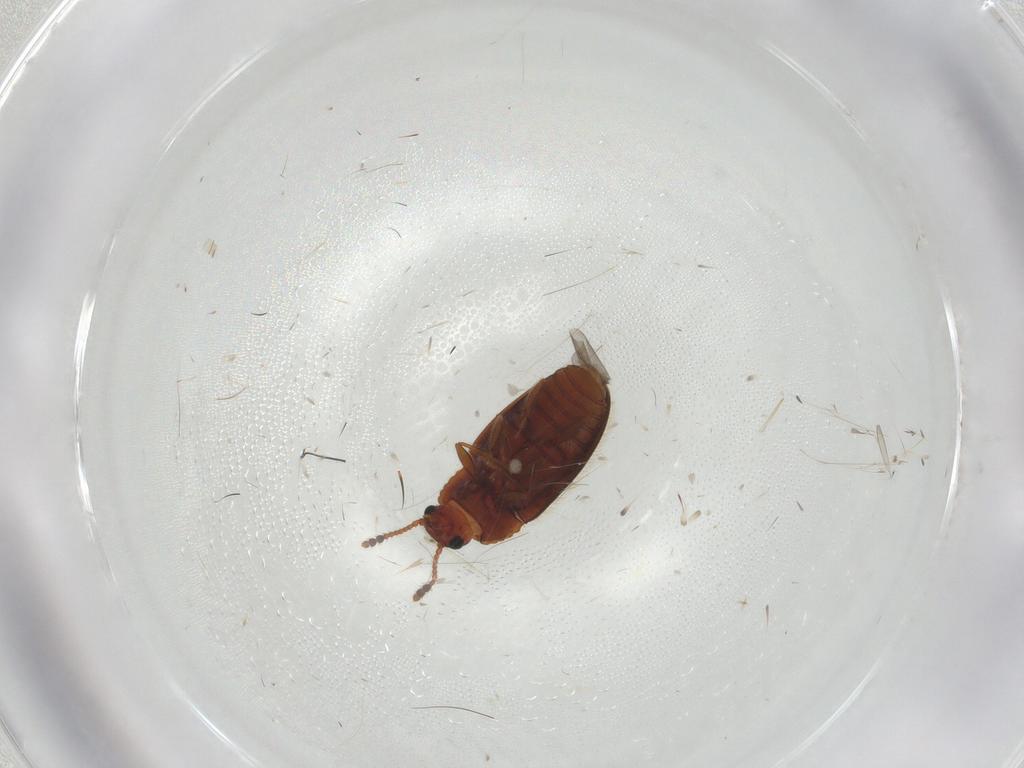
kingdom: Animalia
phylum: Arthropoda
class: Insecta
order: Coleoptera
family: Erotylidae
